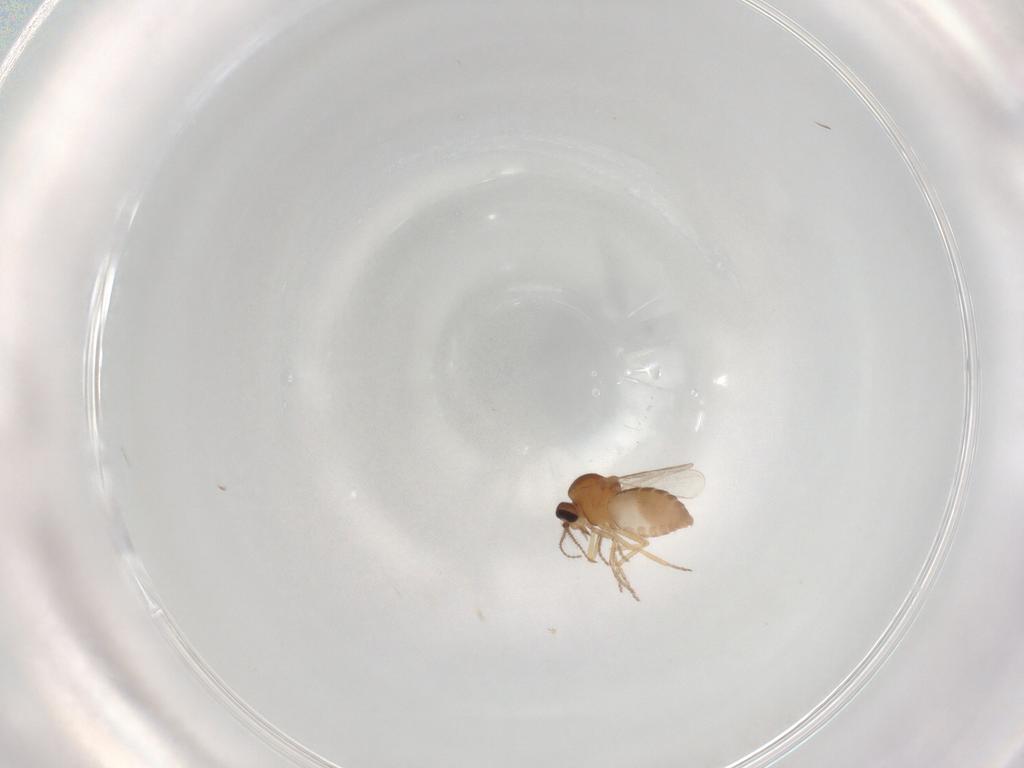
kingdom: Animalia
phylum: Arthropoda
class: Insecta
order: Diptera
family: Ceratopogonidae
